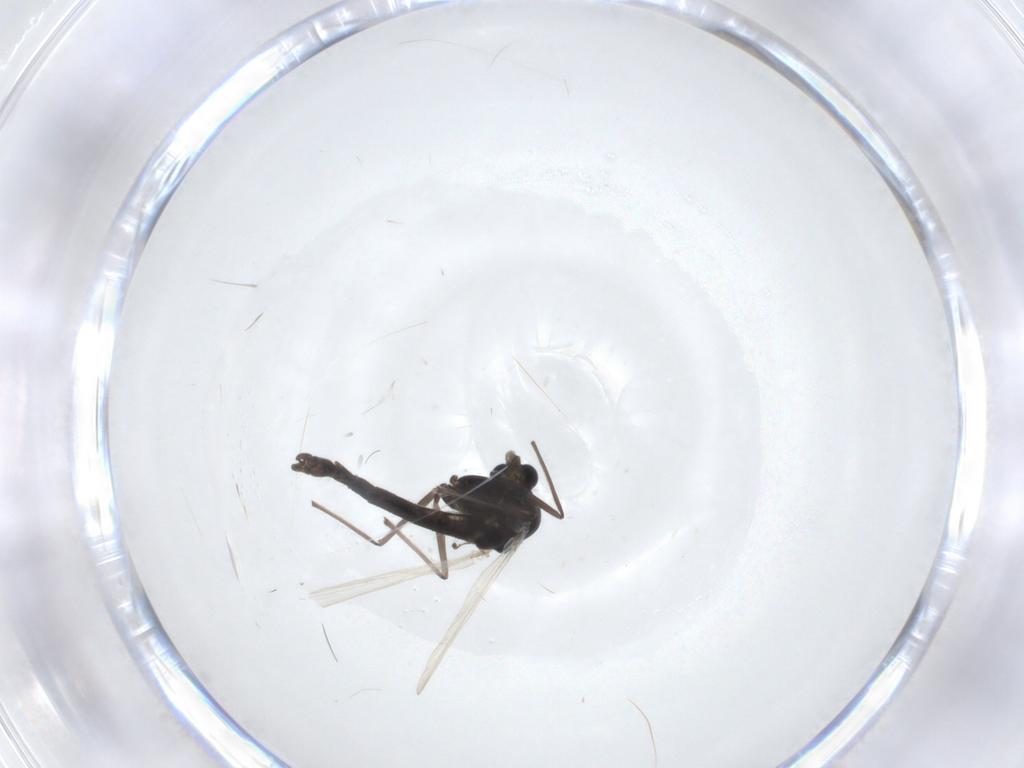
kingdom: Animalia
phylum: Arthropoda
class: Insecta
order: Diptera
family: Chironomidae
